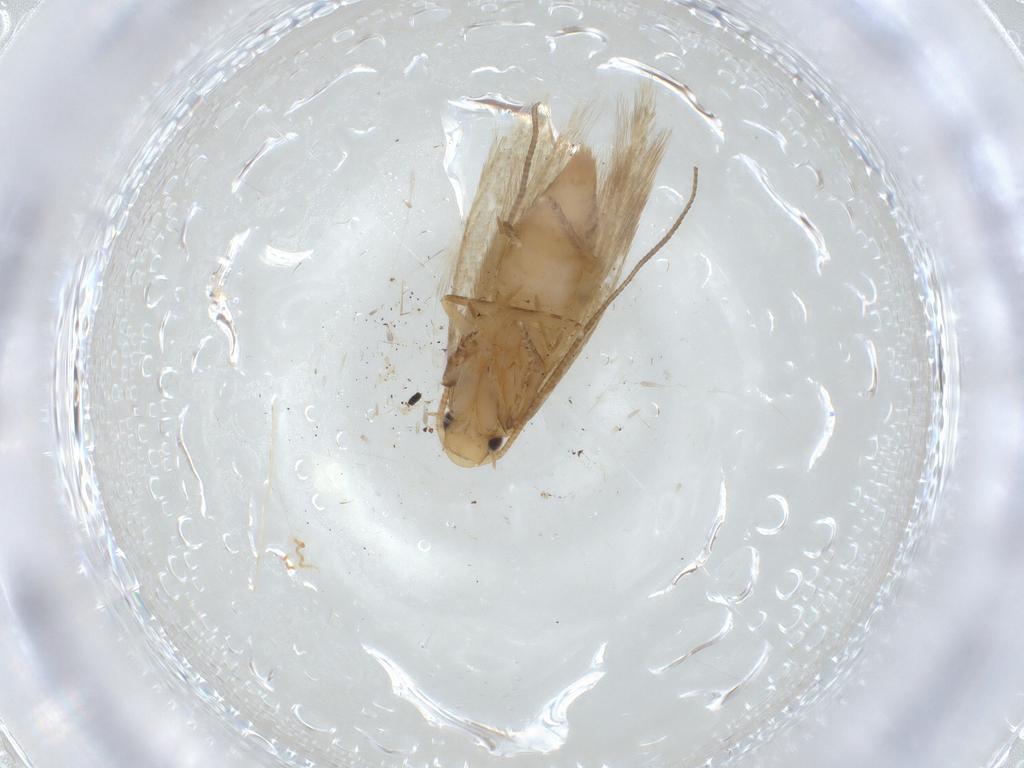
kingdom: Animalia
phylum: Arthropoda
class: Insecta
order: Lepidoptera
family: Tineidae
